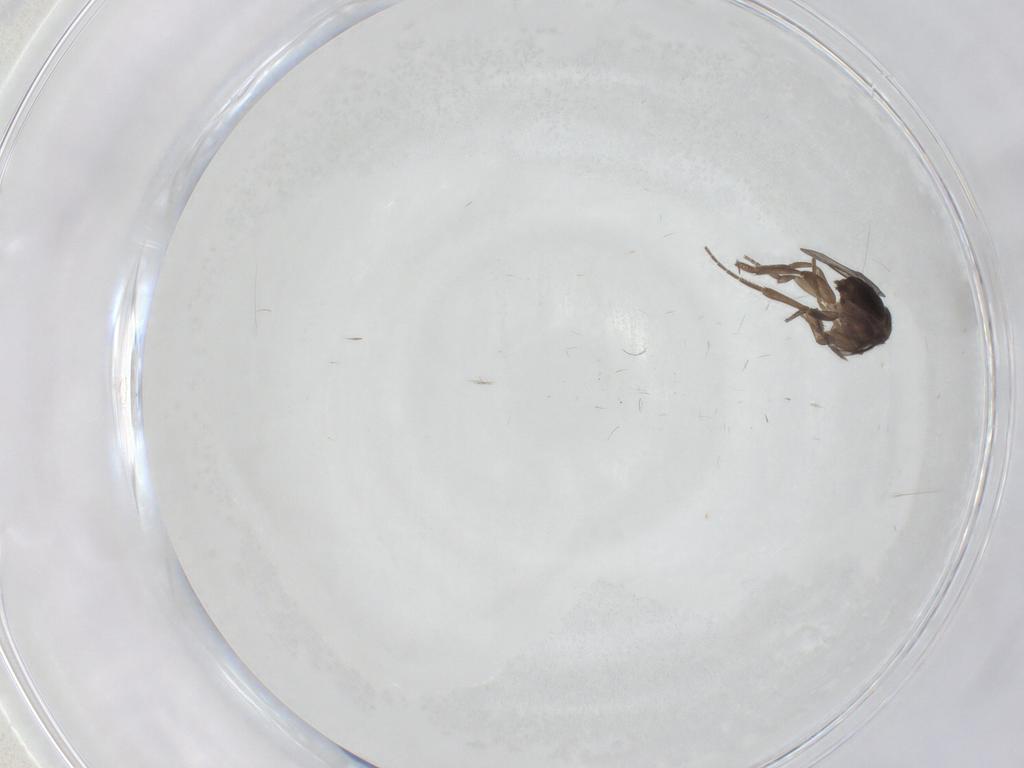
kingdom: Animalia
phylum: Arthropoda
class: Insecta
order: Diptera
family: Phoridae
